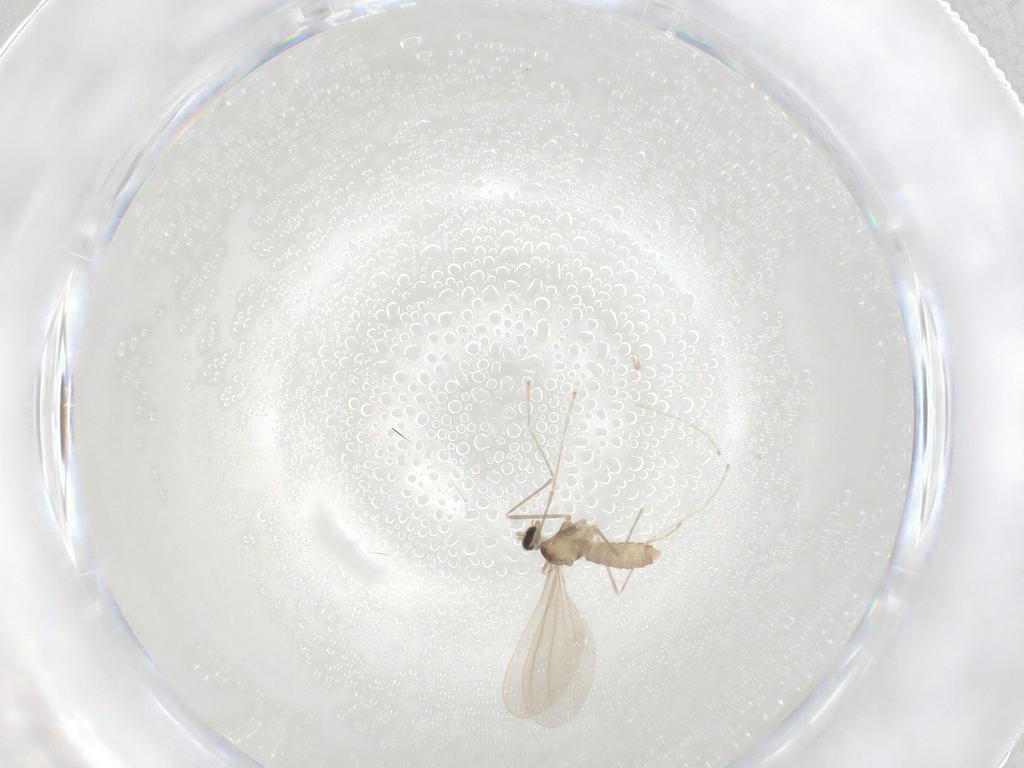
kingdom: Animalia
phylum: Arthropoda
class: Insecta
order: Diptera
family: Cecidomyiidae
